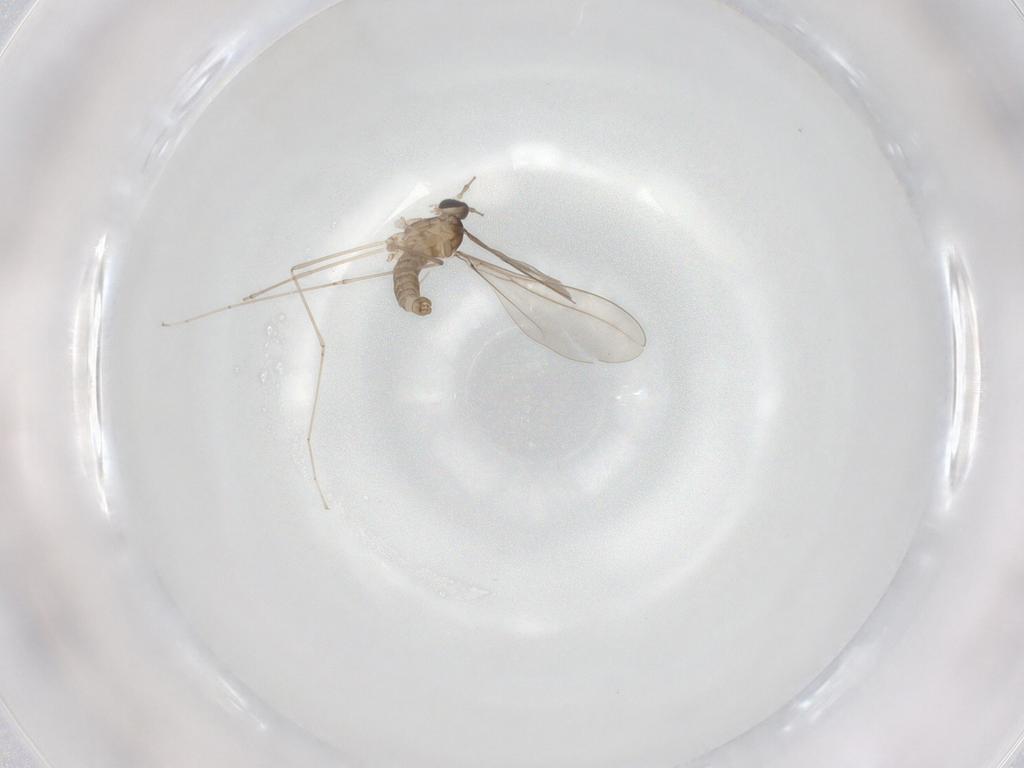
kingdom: Animalia
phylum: Arthropoda
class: Insecta
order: Diptera
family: Cecidomyiidae
